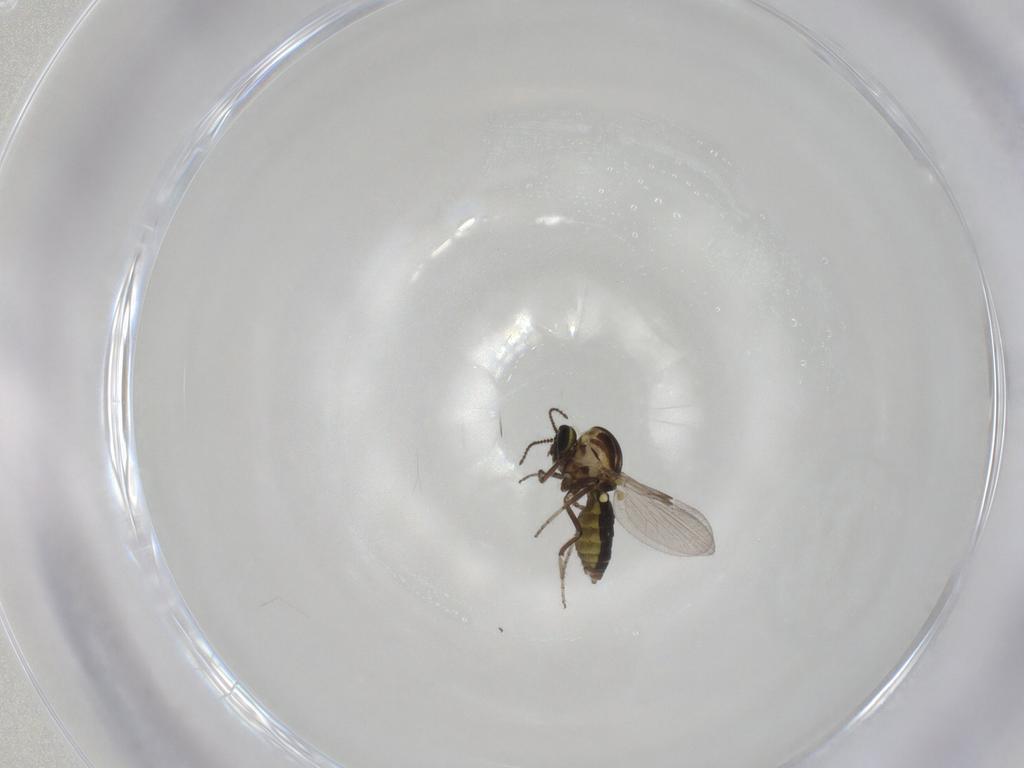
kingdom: Animalia
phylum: Arthropoda
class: Insecta
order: Diptera
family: Ceratopogonidae
